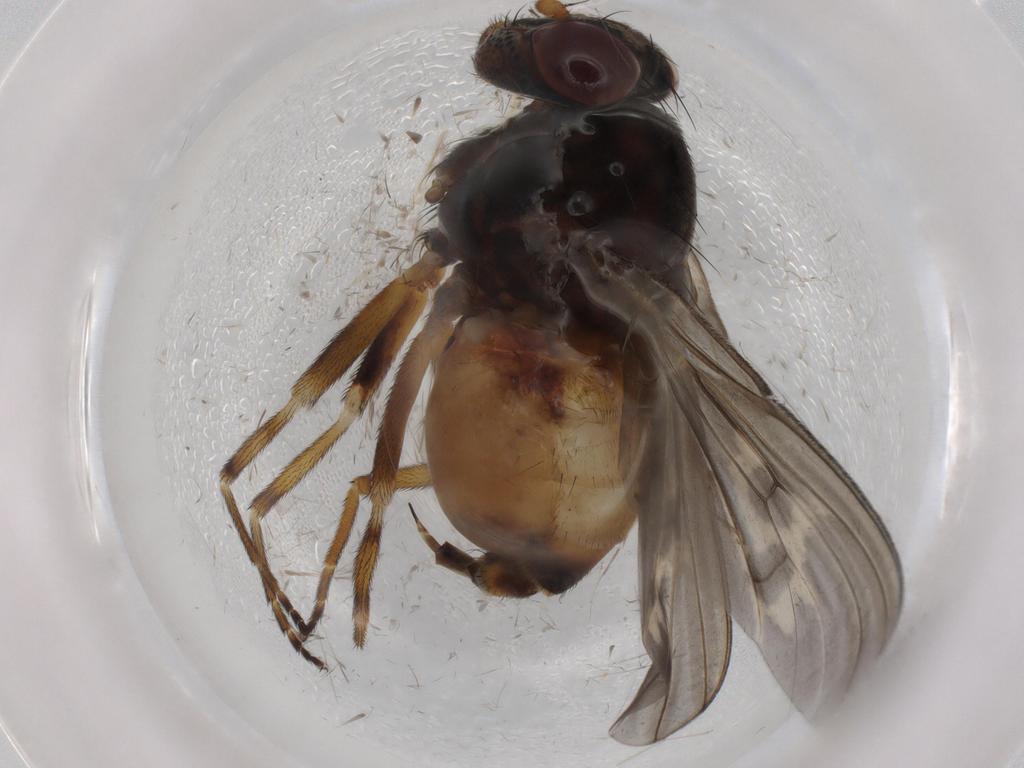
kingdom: Animalia
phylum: Arthropoda
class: Insecta
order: Diptera
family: Odiniidae
